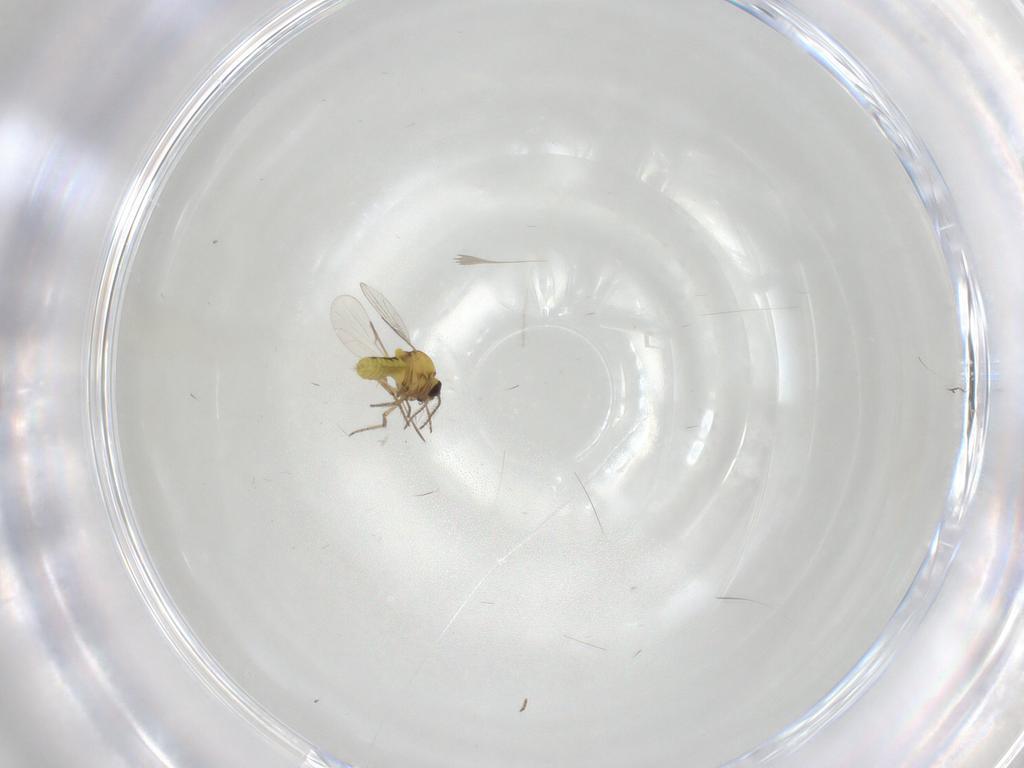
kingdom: Animalia
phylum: Arthropoda
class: Insecta
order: Diptera
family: Ceratopogonidae
